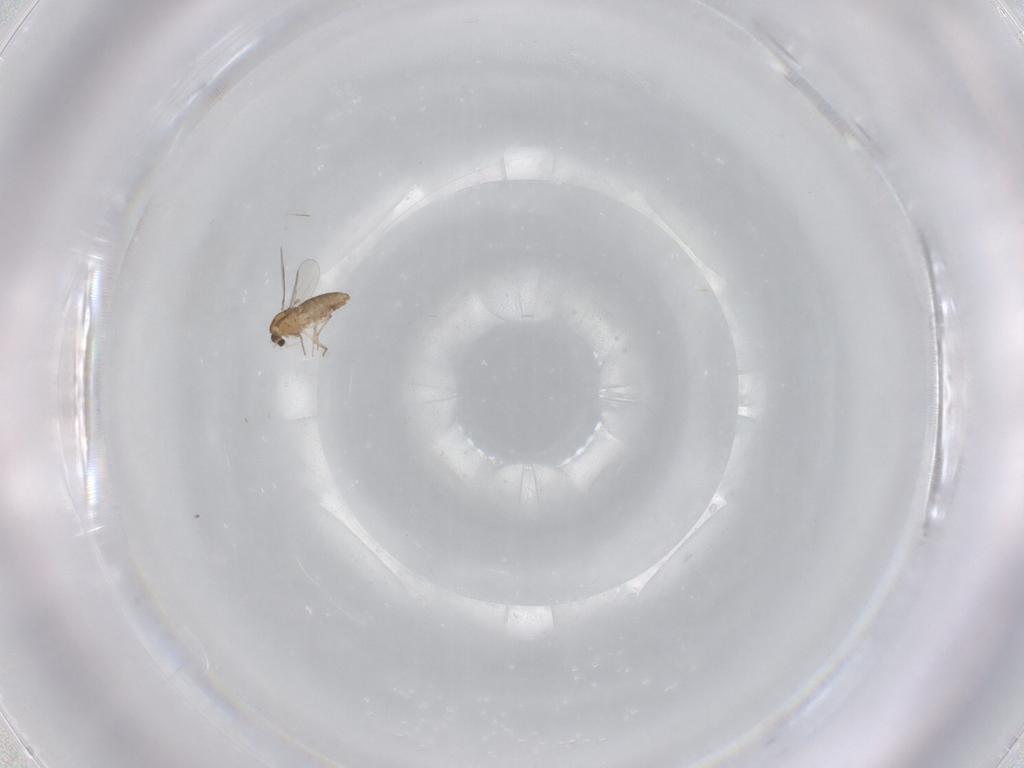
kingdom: Animalia
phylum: Arthropoda
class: Insecta
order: Diptera
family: Chironomidae
